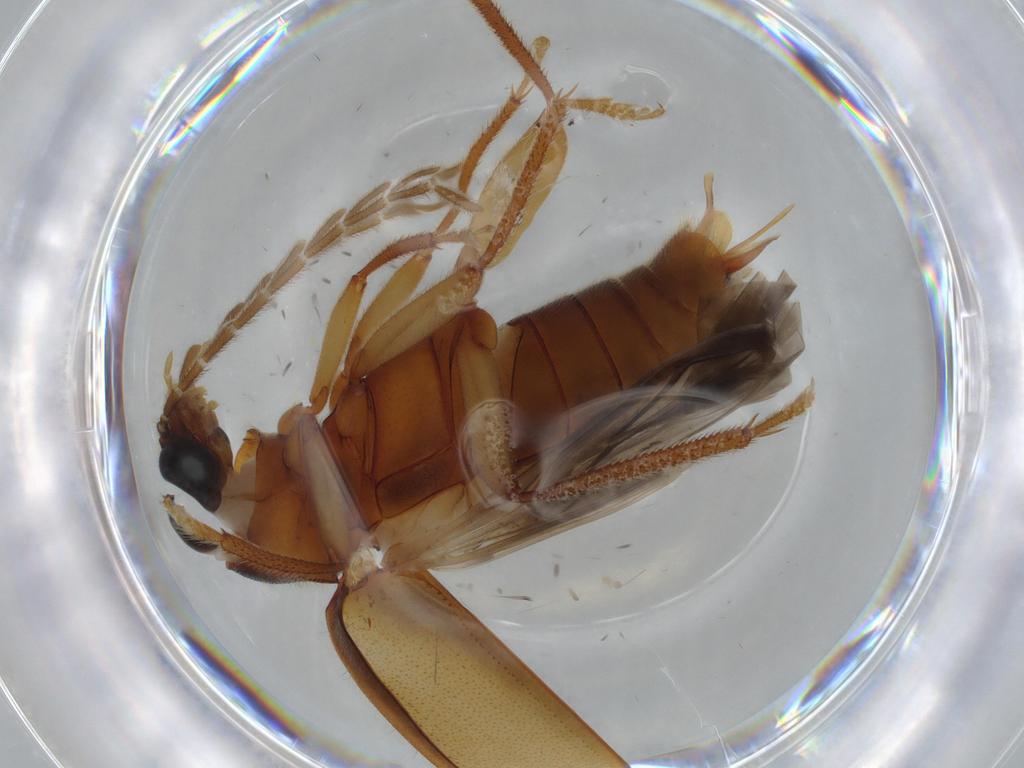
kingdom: Animalia
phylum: Arthropoda
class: Insecta
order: Coleoptera
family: Ptilodactylidae
